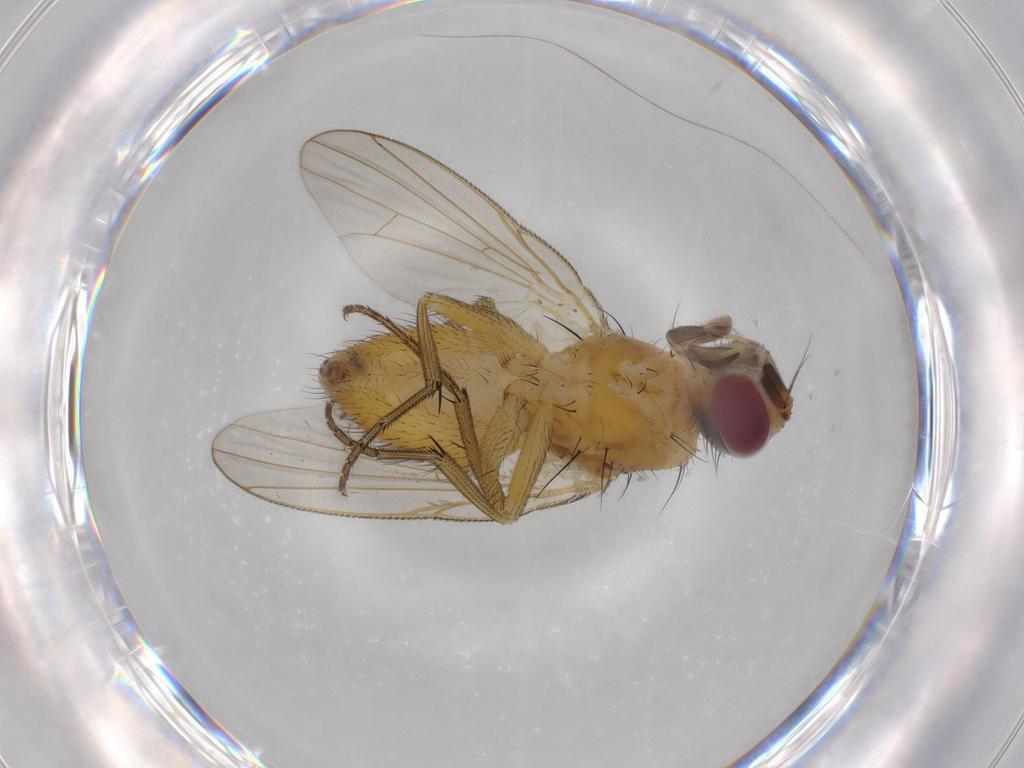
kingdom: Animalia
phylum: Arthropoda
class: Insecta
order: Diptera
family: Muscidae
